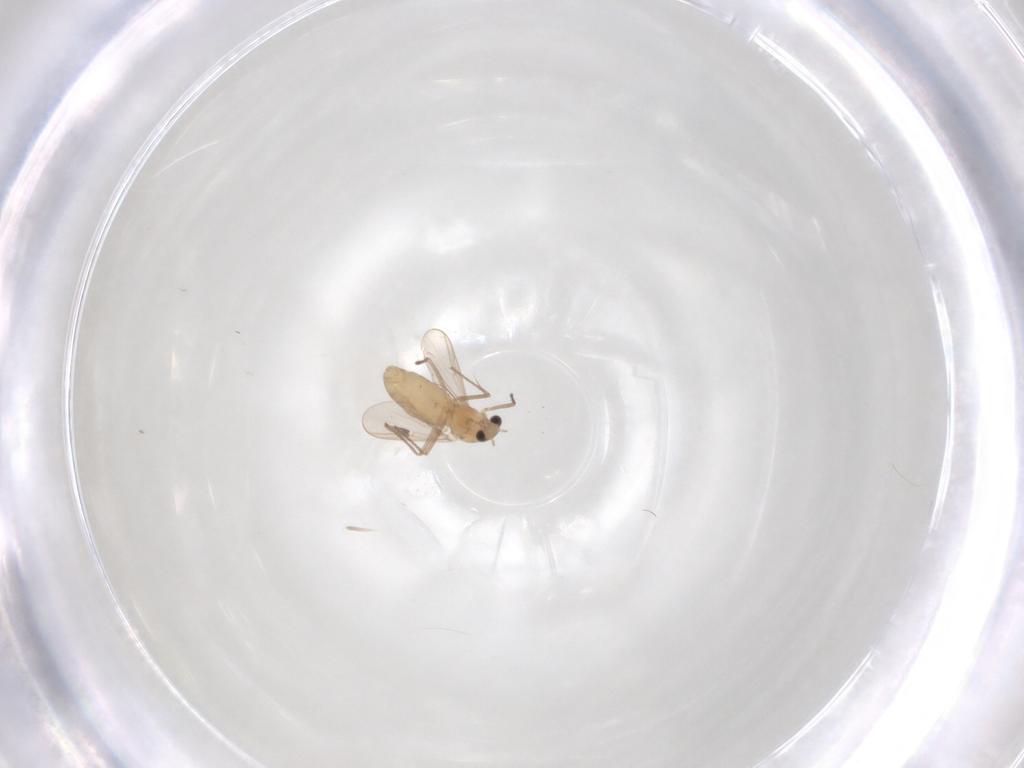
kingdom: Animalia
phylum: Arthropoda
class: Insecta
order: Diptera
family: Chironomidae
